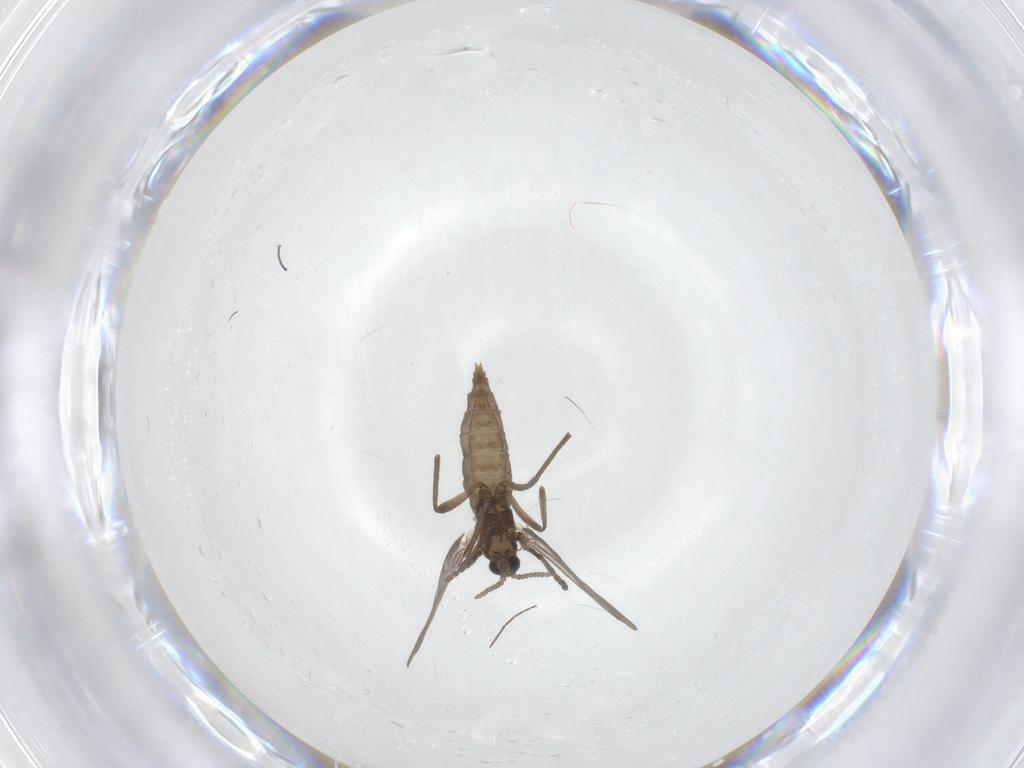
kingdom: Animalia
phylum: Arthropoda
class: Insecta
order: Diptera
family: Cecidomyiidae
